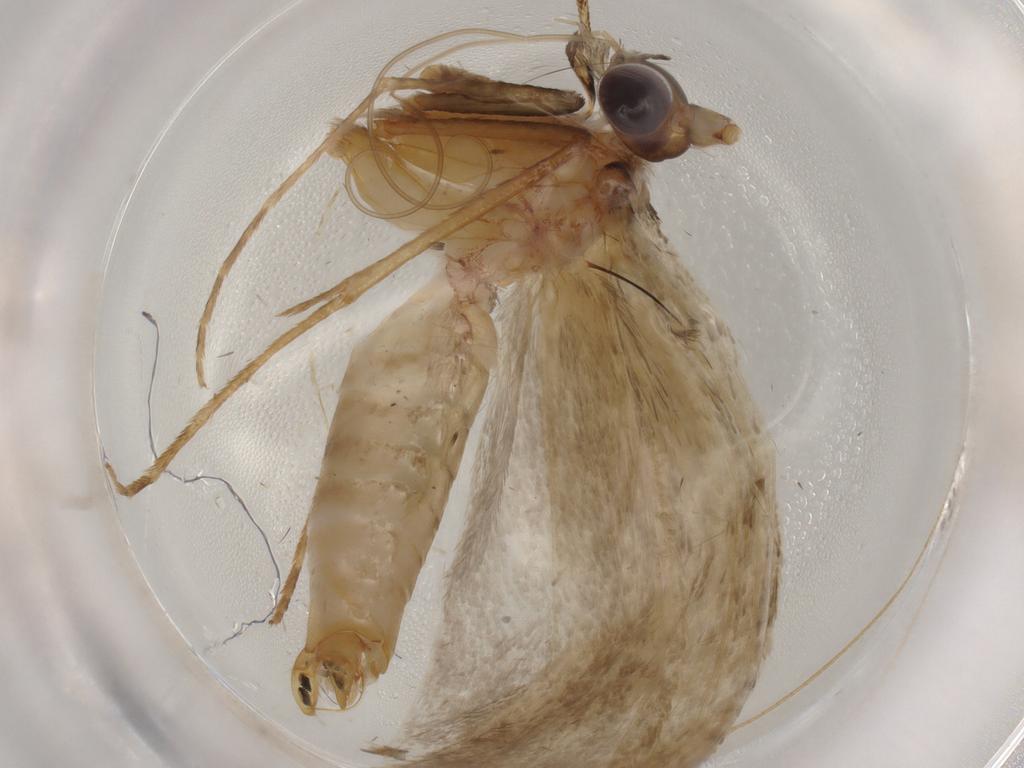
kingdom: Animalia
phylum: Arthropoda
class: Insecta
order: Lepidoptera
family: Adelidae
